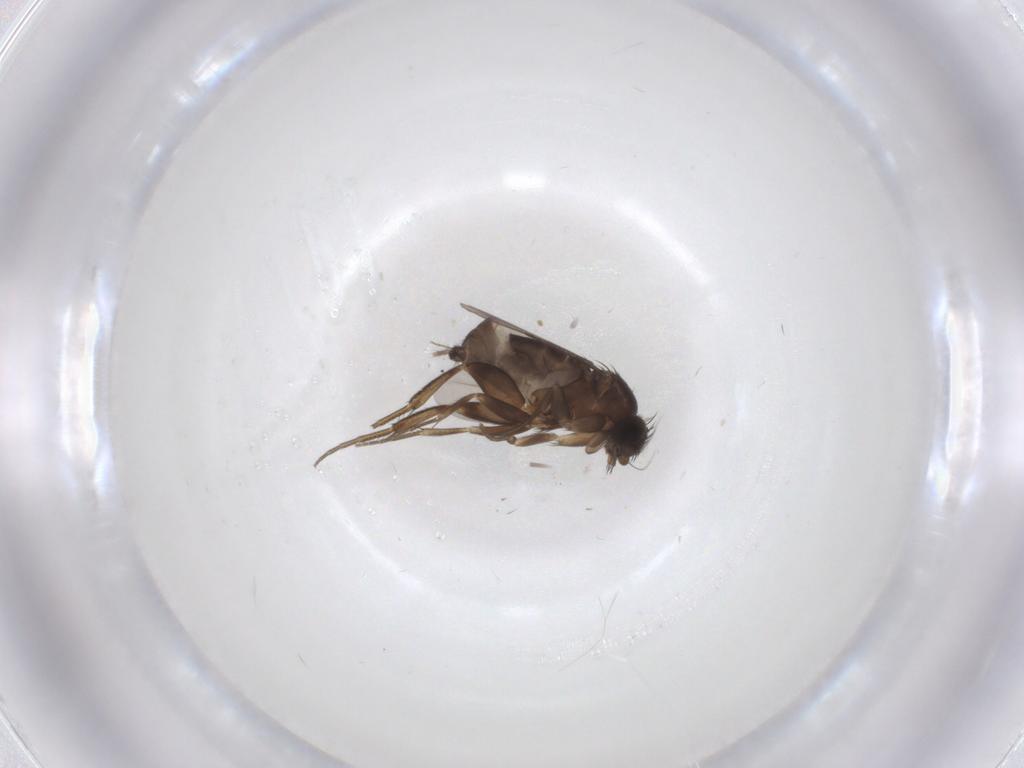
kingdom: Animalia
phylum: Arthropoda
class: Insecta
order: Diptera
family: Phoridae
